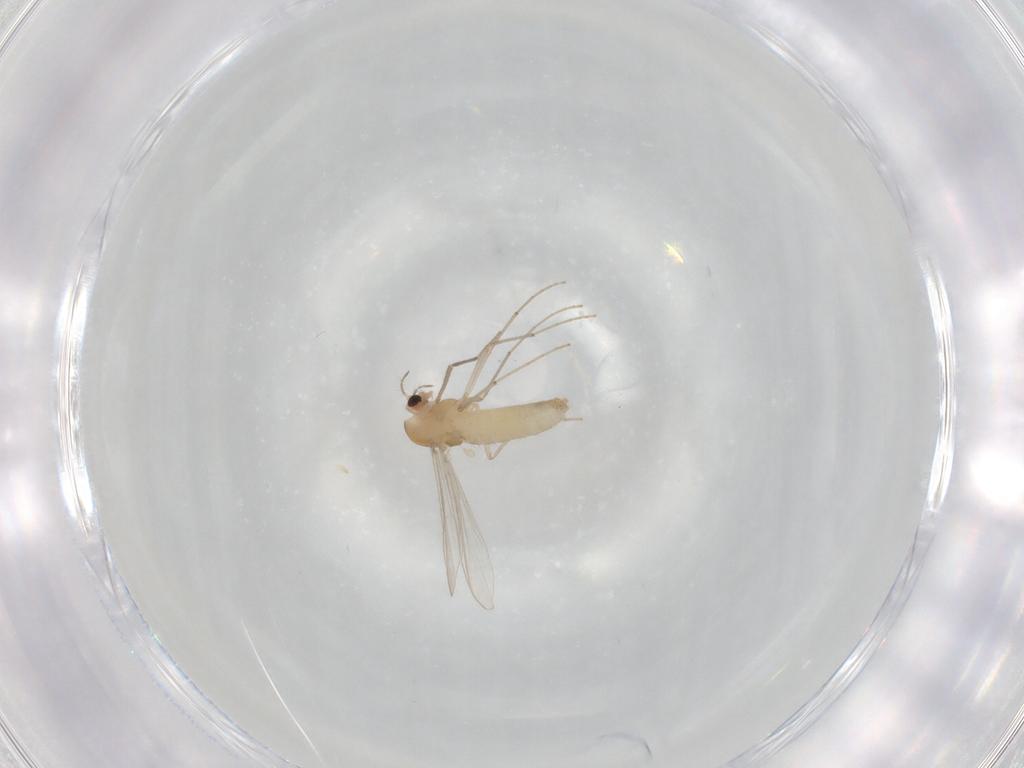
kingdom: Animalia
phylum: Arthropoda
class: Insecta
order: Diptera
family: Chironomidae
